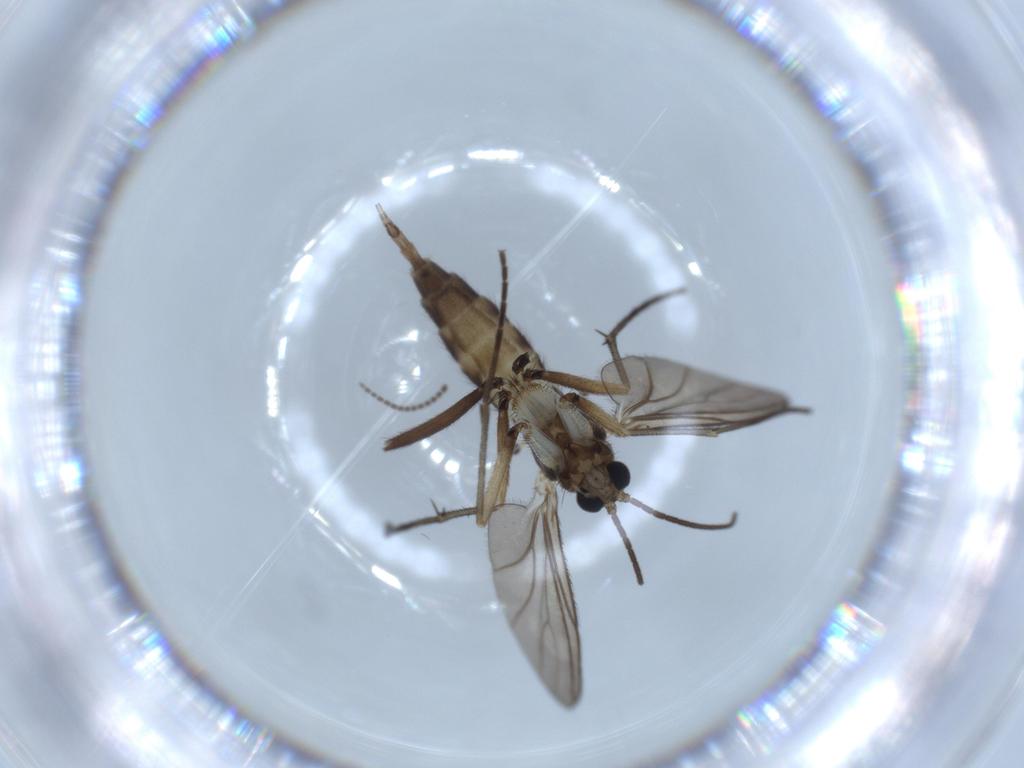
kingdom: Animalia
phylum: Arthropoda
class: Insecta
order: Diptera
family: Sciaridae
